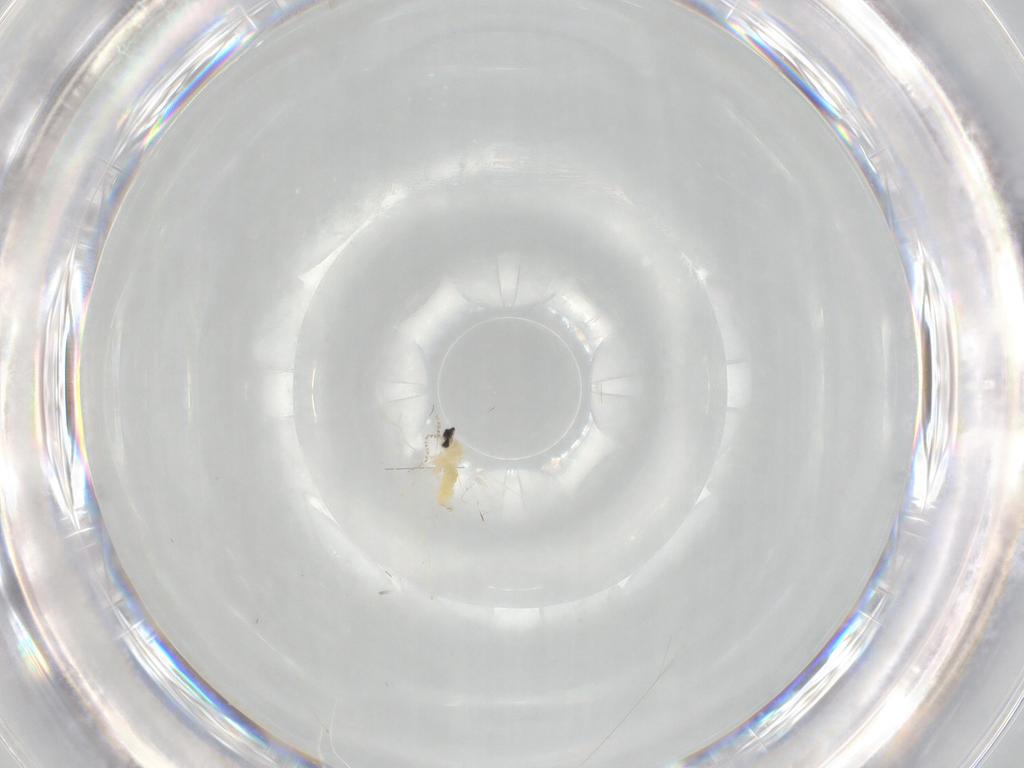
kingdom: Animalia
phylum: Arthropoda
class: Insecta
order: Diptera
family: Cecidomyiidae
